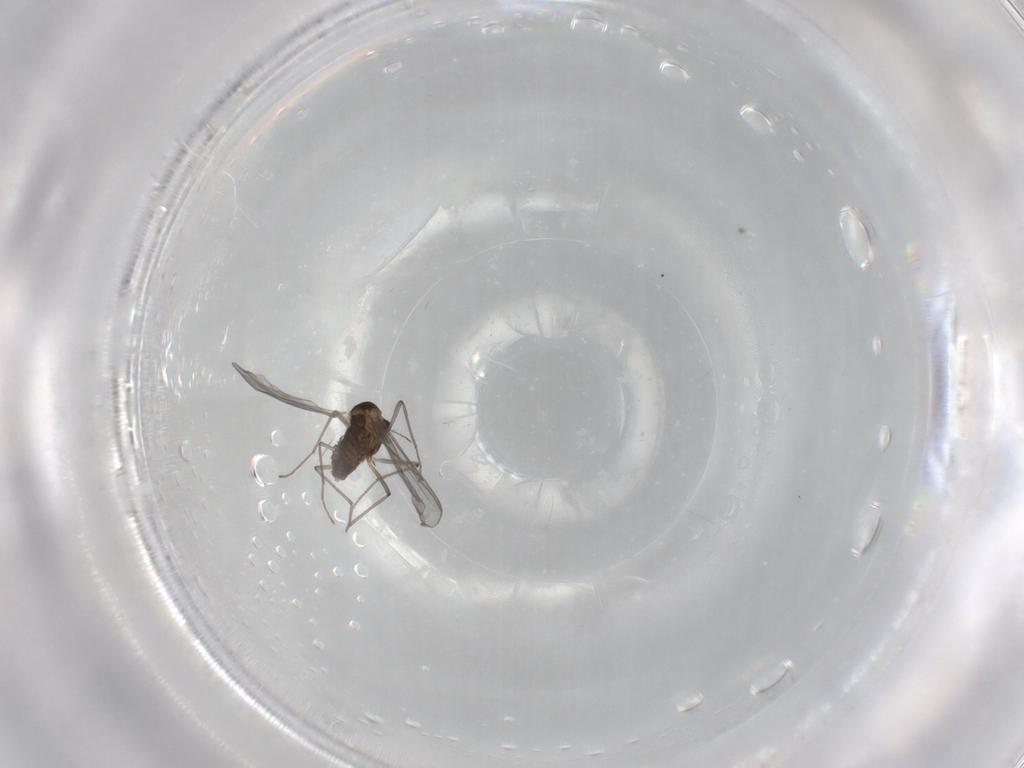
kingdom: Animalia
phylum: Arthropoda
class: Insecta
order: Diptera
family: Chironomidae
